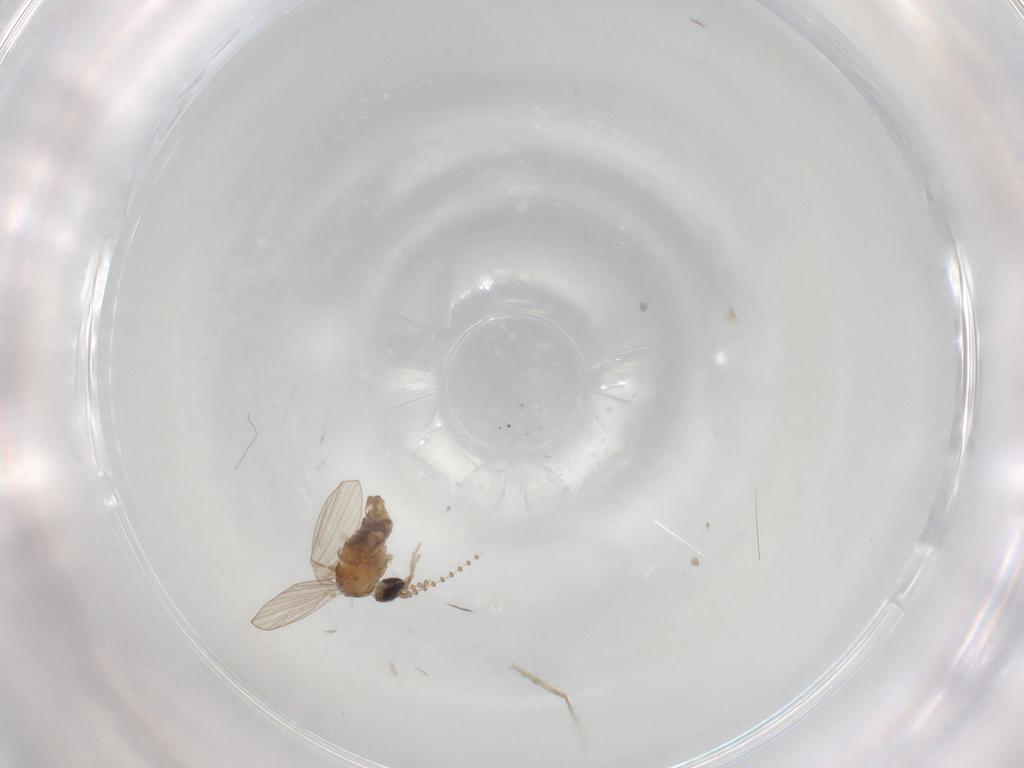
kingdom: Animalia
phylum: Arthropoda
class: Insecta
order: Diptera
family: Psychodidae
